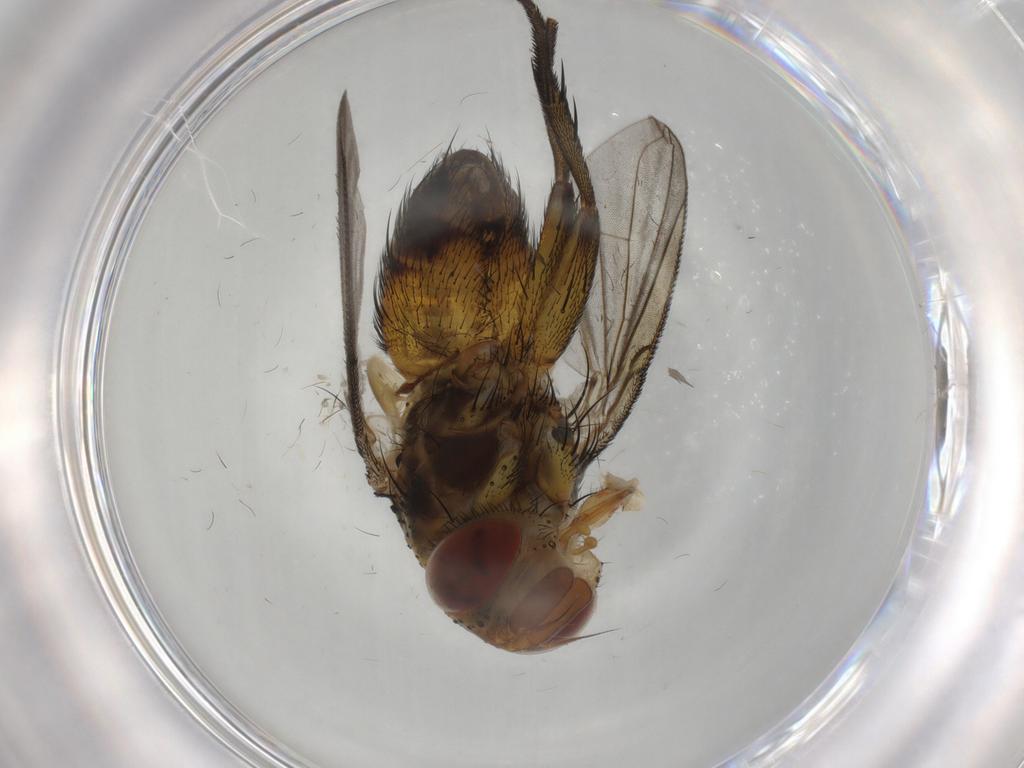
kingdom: Animalia
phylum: Arthropoda
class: Insecta
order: Diptera
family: Tachinidae
